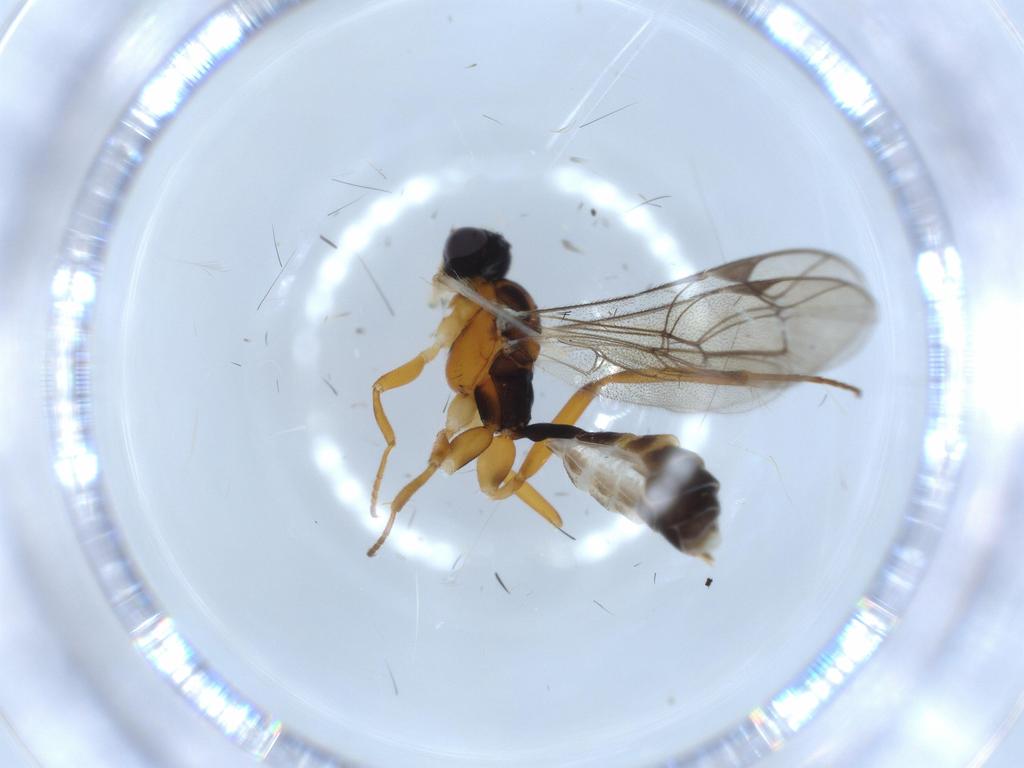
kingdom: Animalia
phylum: Arthropoda
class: Insecta
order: Hymenoptera
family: Ichneumonidae
